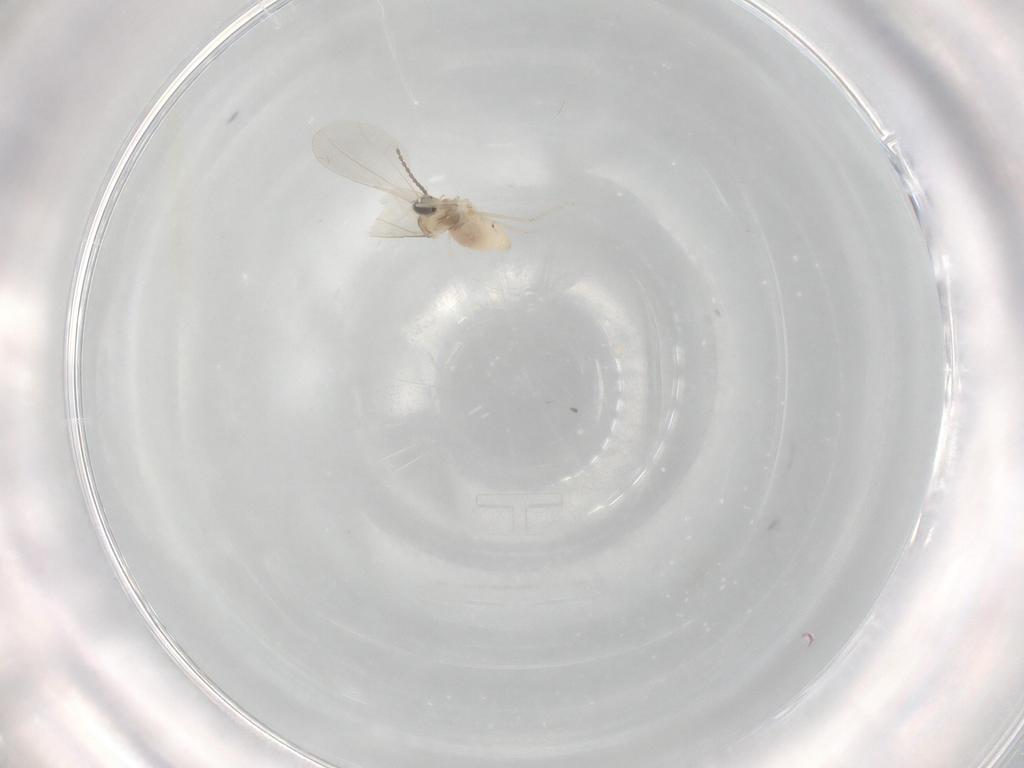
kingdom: Animalia
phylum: Arthropoda
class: Insecta
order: Diptera
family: Cecidomyiidae
